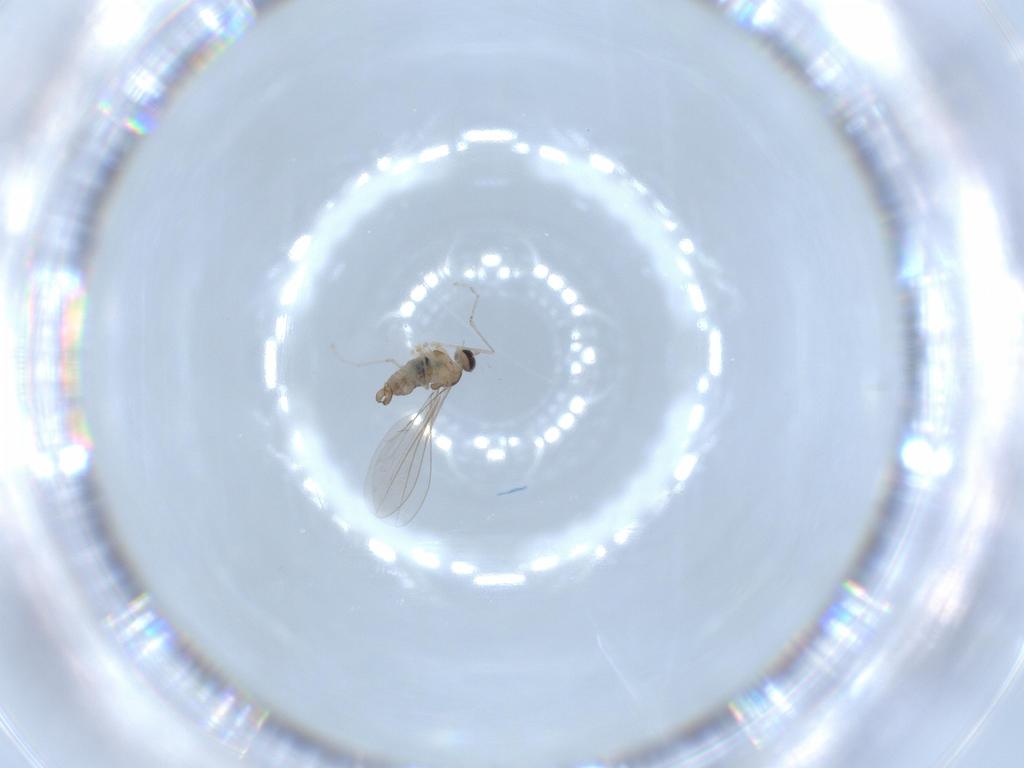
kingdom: Animalia
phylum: Arthropoda
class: Insecta
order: Diptera
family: Cecidomyiidae
